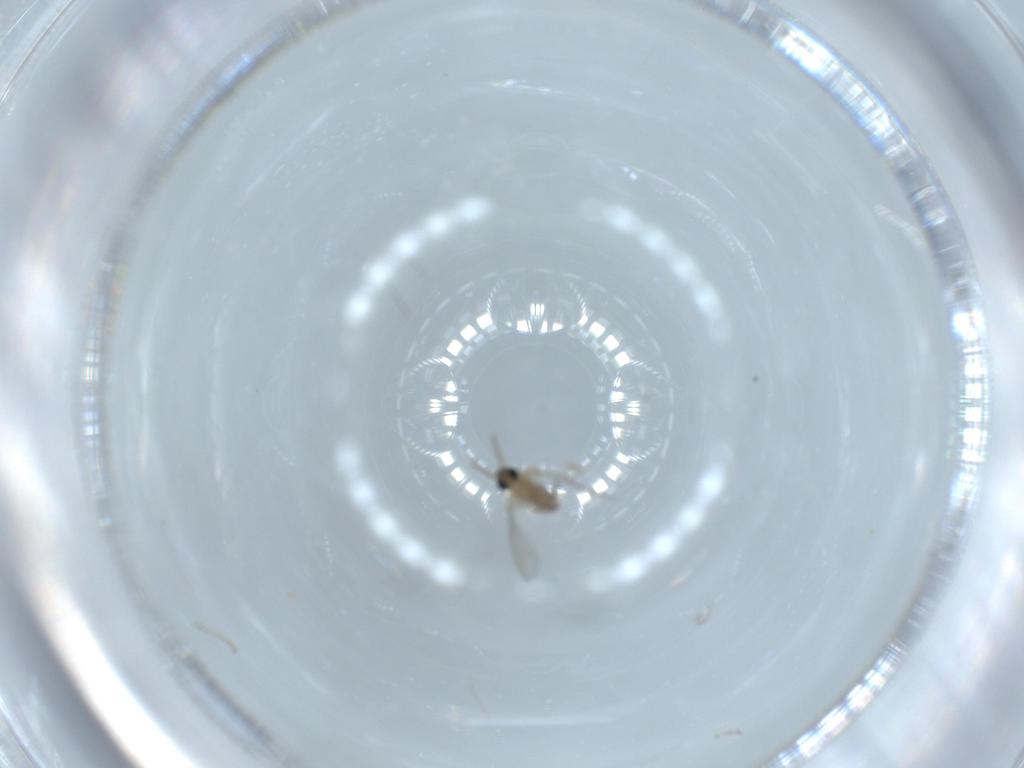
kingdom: Animalia
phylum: Arthropoda
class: Insecta
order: Diptera
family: Cecidomyiidae
